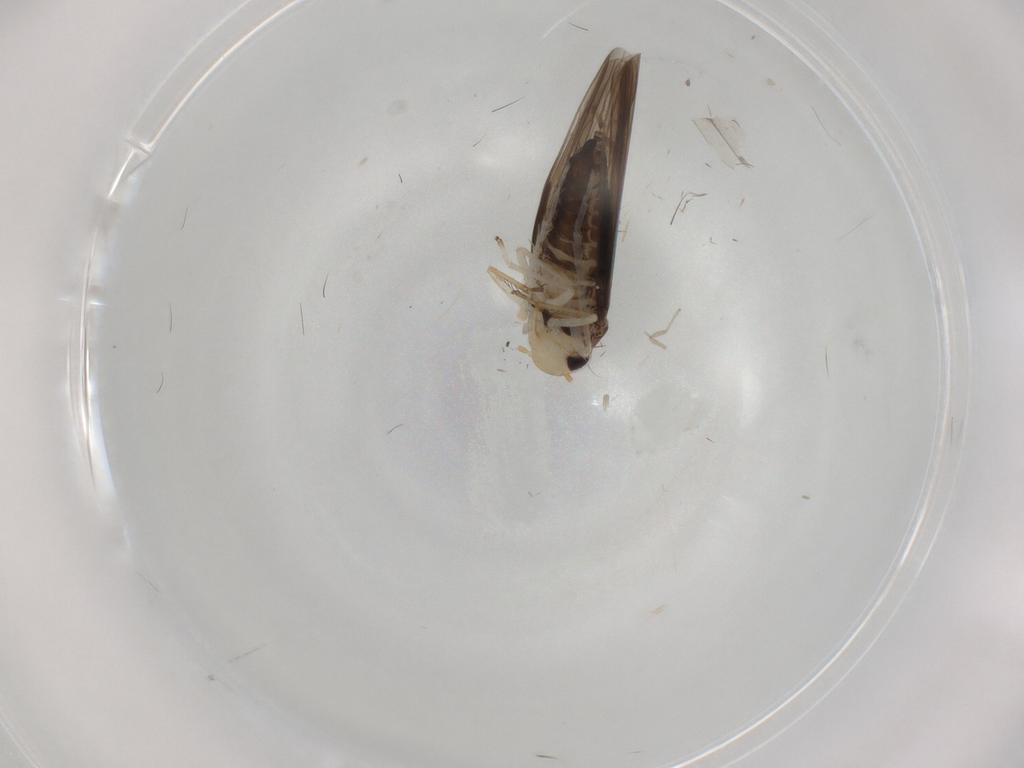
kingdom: Animalia
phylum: Arthropoda
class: Insecta
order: Hemiptera
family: Cicadellidae
